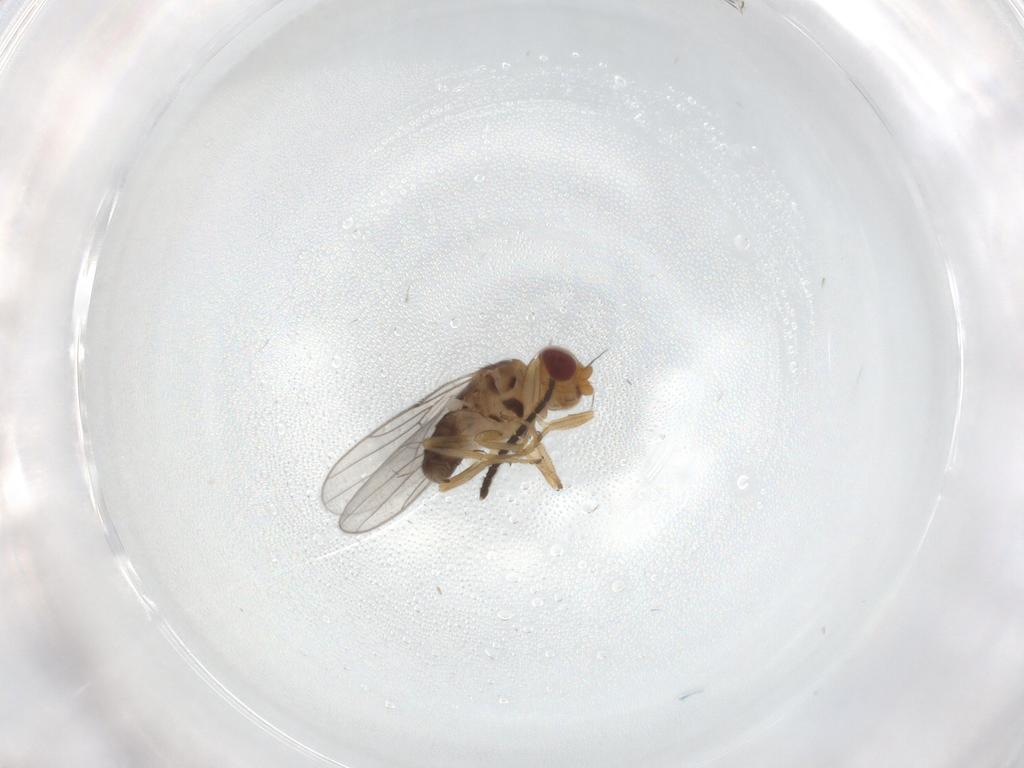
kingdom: Animalia
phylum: Arthropoda
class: Insecta
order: Diptera
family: Chloropidae
